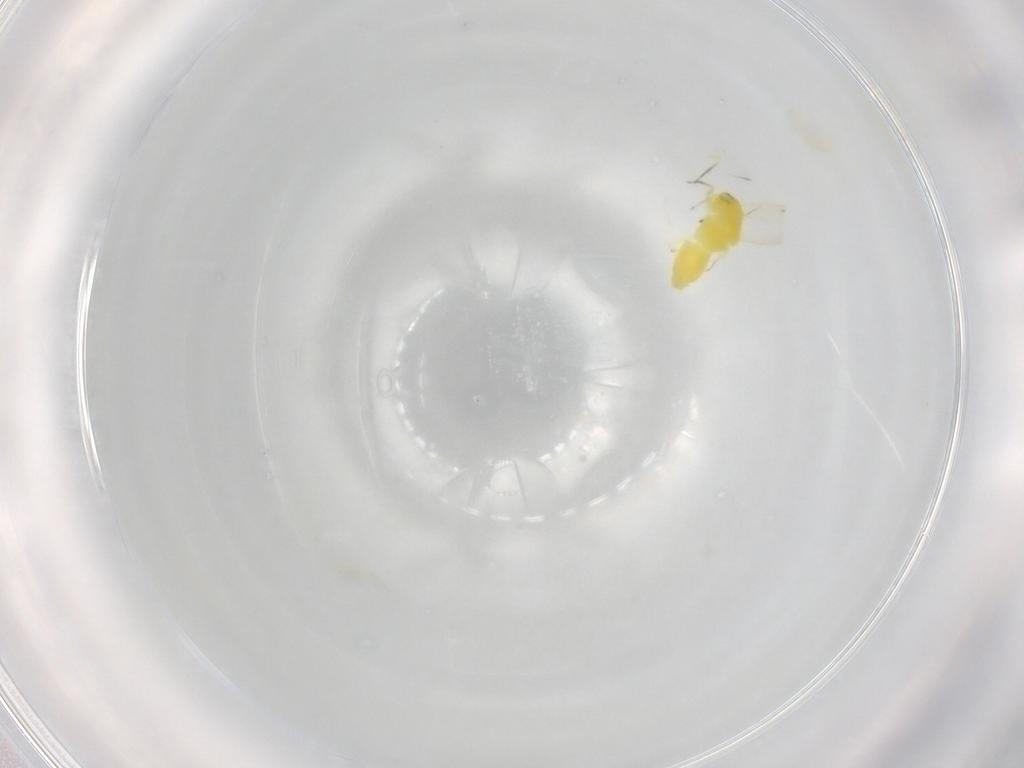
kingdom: Animalia
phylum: Arthropoda
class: Insecta
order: Hemiptera
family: Aleyrodidae
